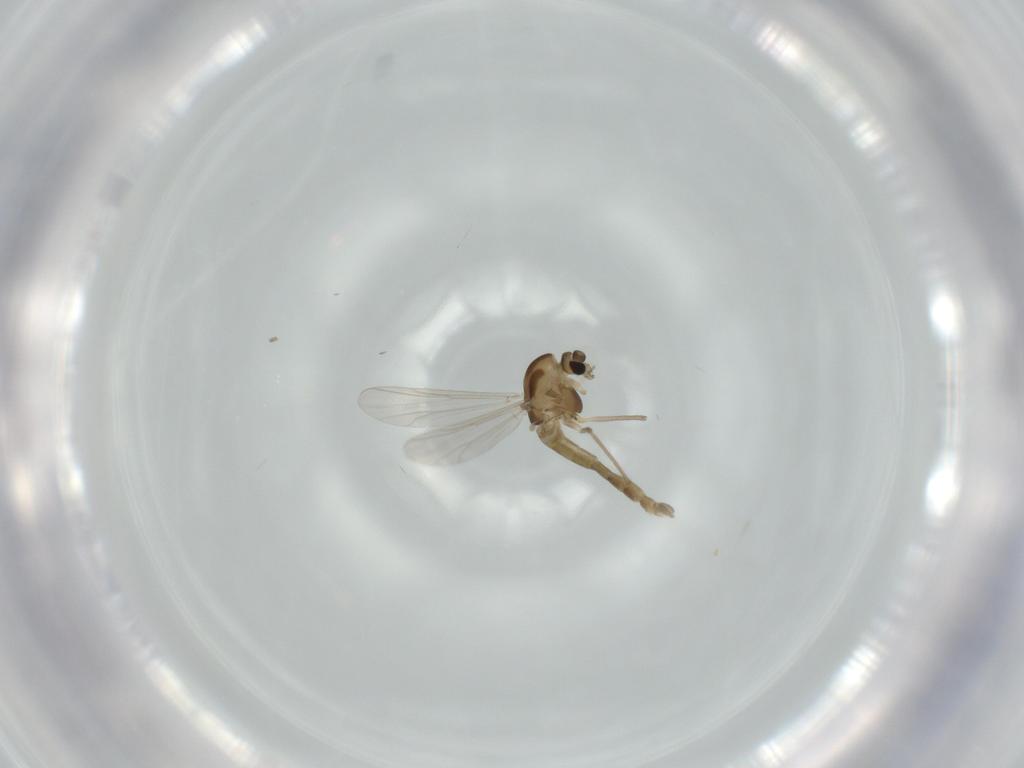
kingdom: Animalia
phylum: Arthropoda
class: Insecta
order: Diptera
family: Chironomidae
